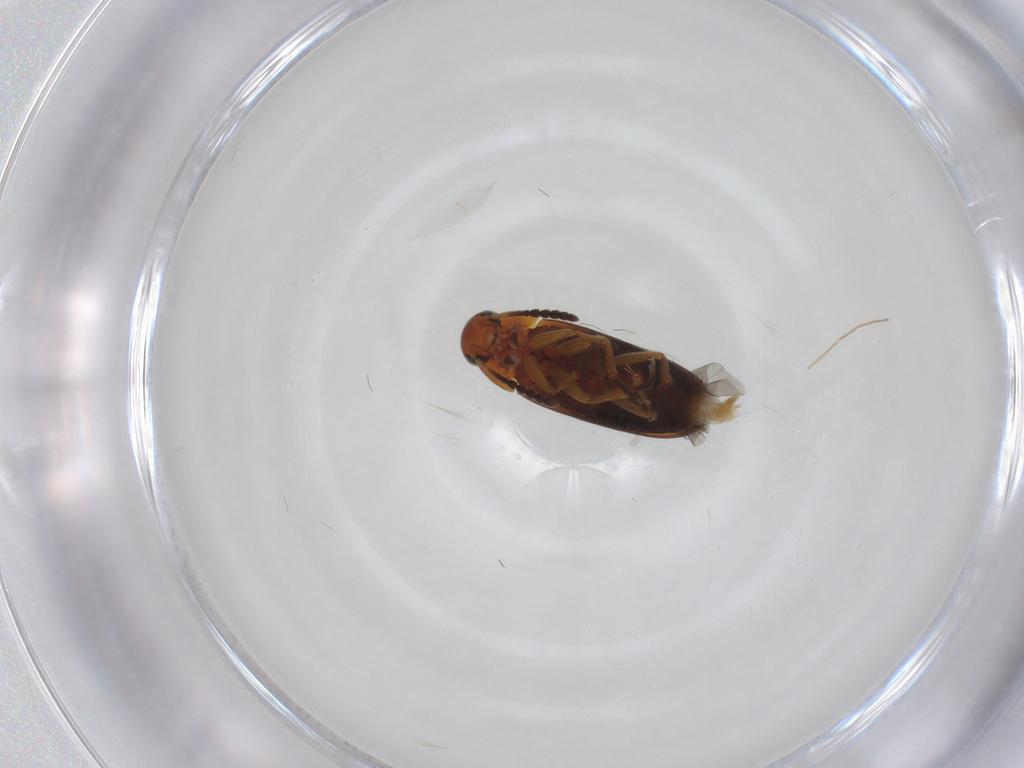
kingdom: Animalia
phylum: Arthropoda
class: Insecta
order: Coleoptera
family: Scraptiidae
